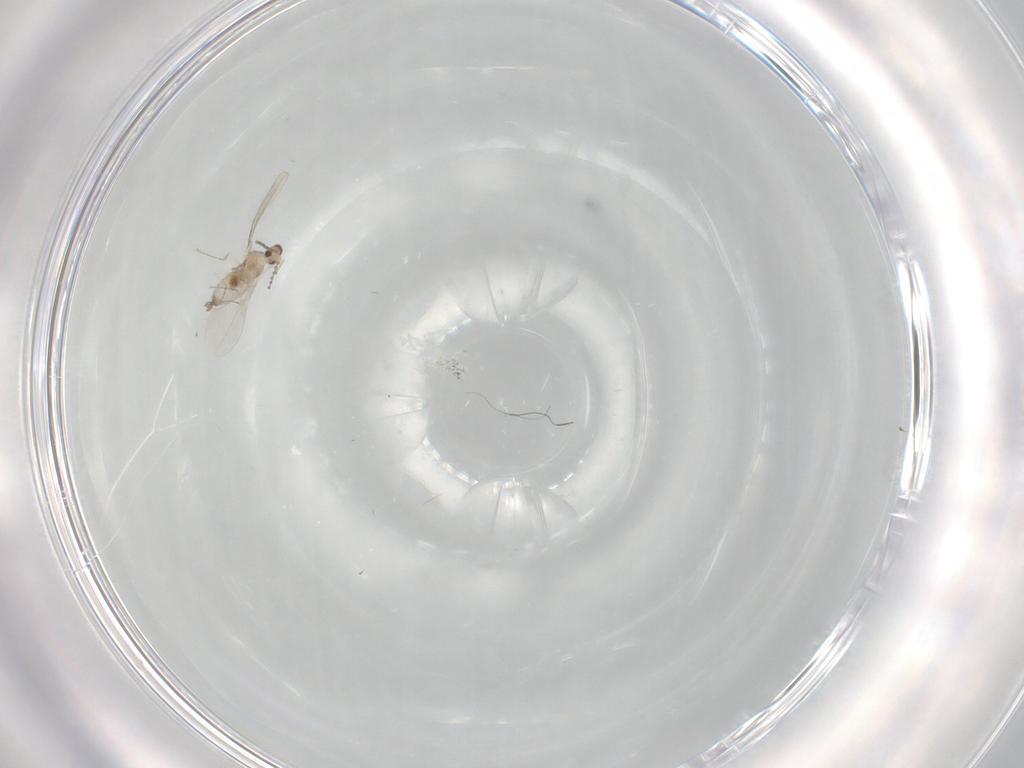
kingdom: Animalia
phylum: Arthropoda
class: Insecta
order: Diptera
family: Cecidomyiidae
